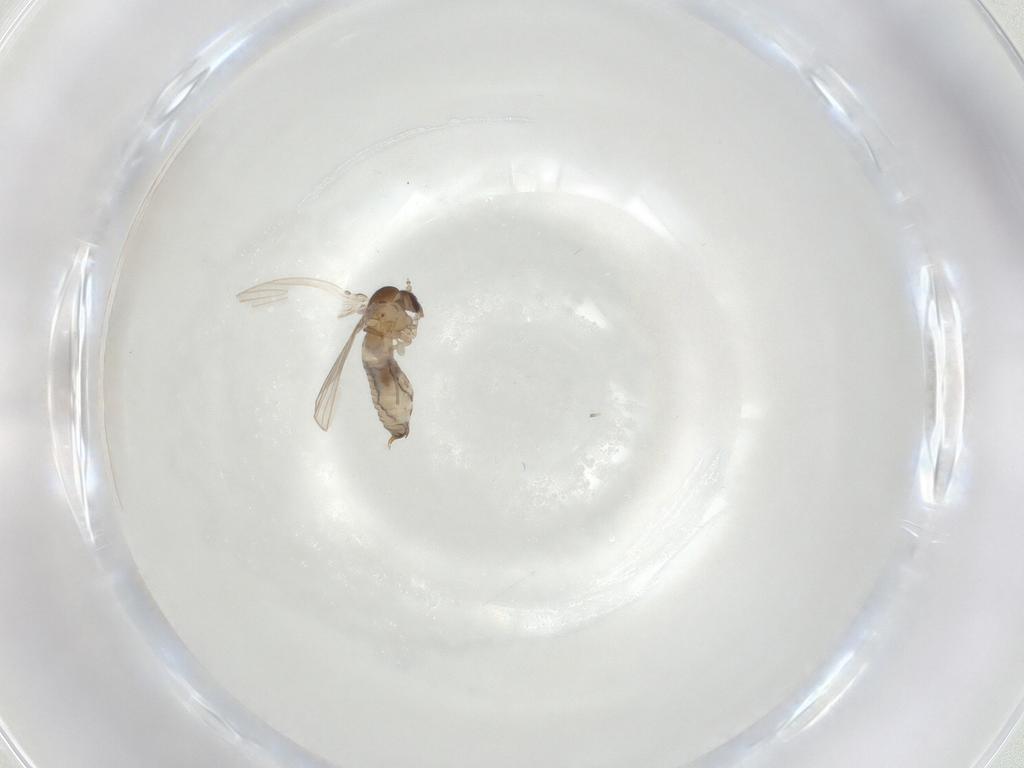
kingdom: Animalia
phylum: Arthropoda
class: Insecta
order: Diptera
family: Psychodidae
